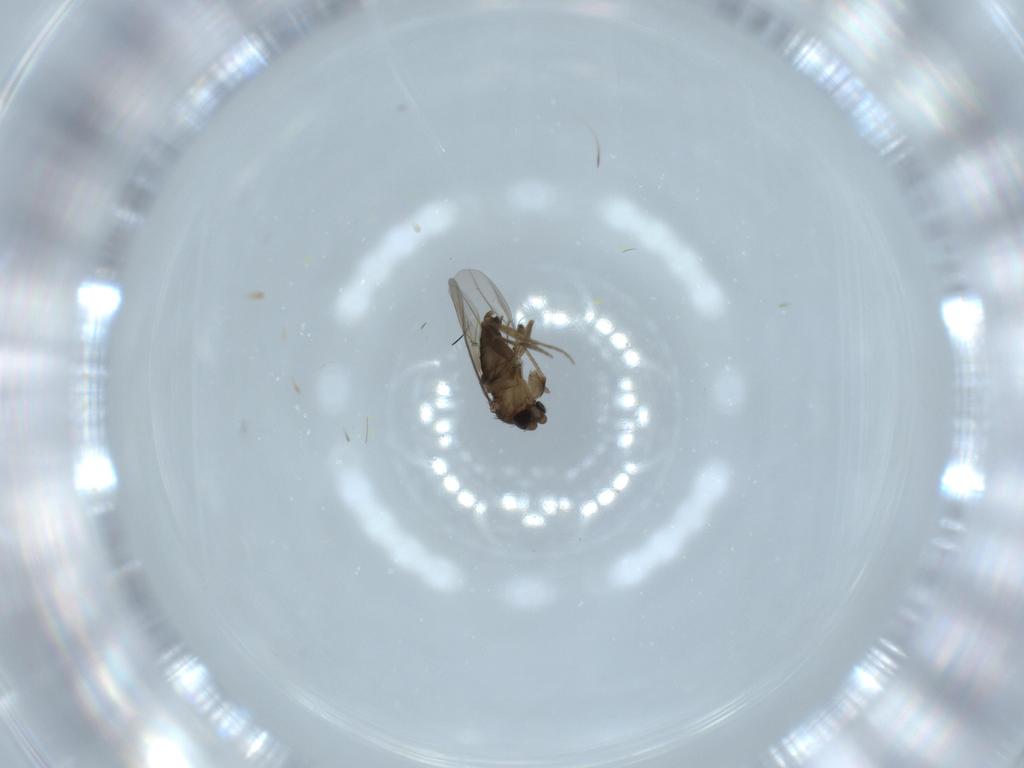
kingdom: Animalia
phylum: Arthropoda
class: Insecta
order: Diptera
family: Phoridae
